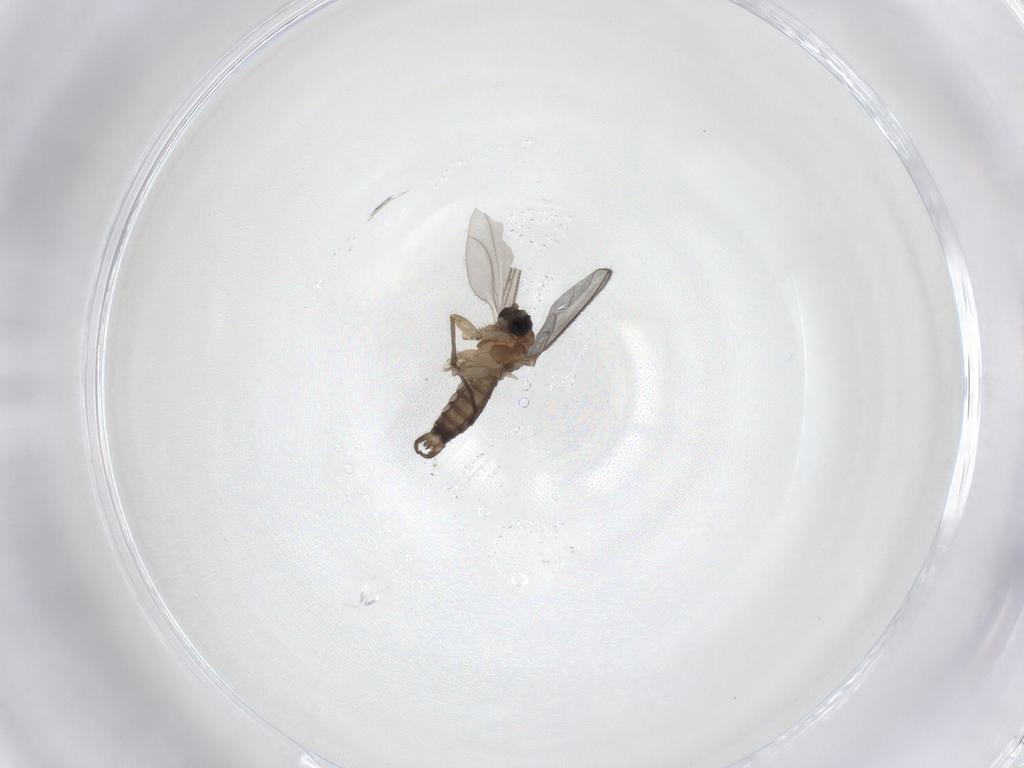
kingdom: Animalia
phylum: Arthropoda
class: Insecta
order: Diptera
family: Sciaridae
